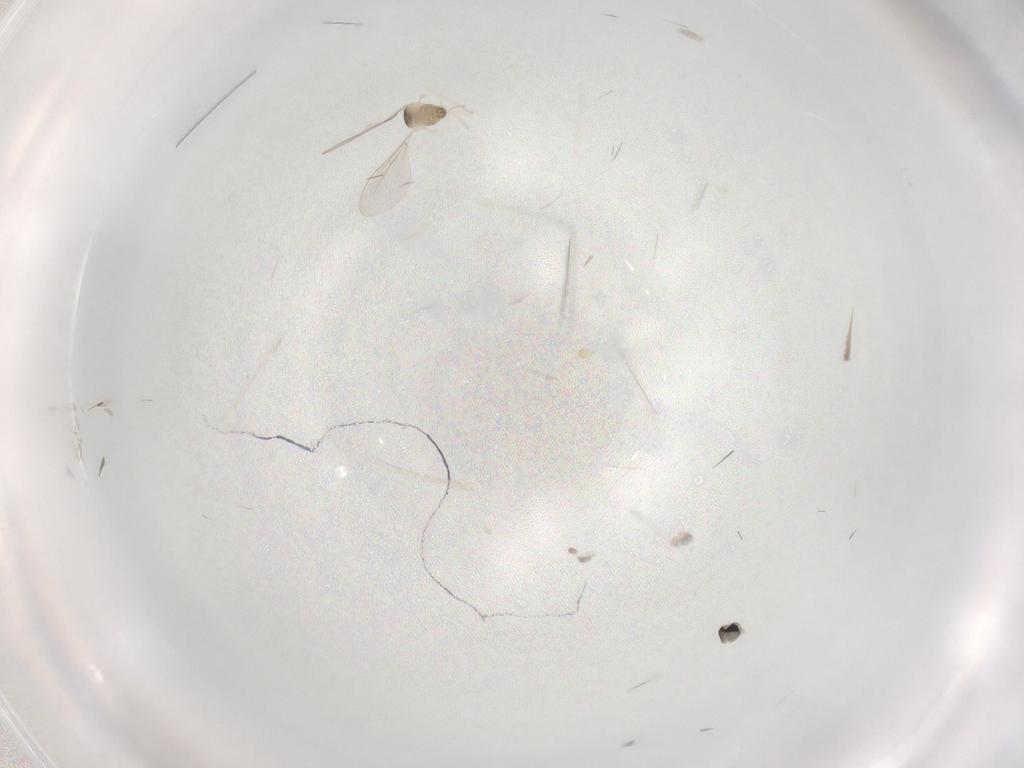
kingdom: Animalia
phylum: Arthropoda
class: Insecta
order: Diptera
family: Cecidomyiidae
